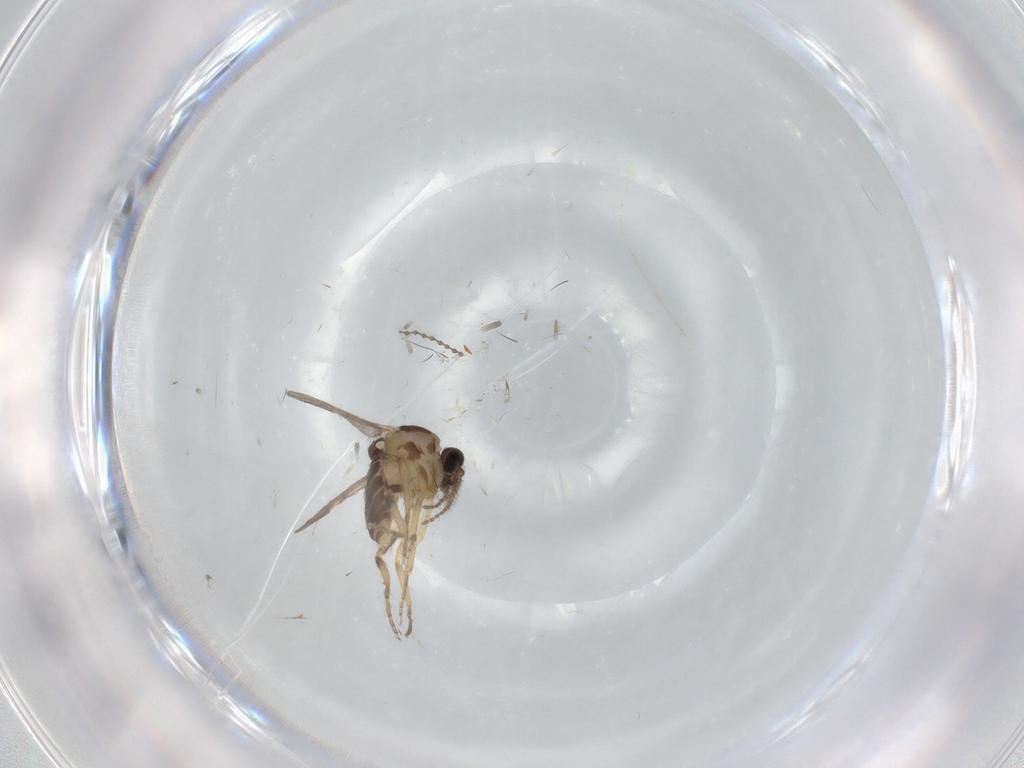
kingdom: Animalia
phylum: Arthropoda
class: Insecta
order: Diptera
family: Ceratopogonidae
